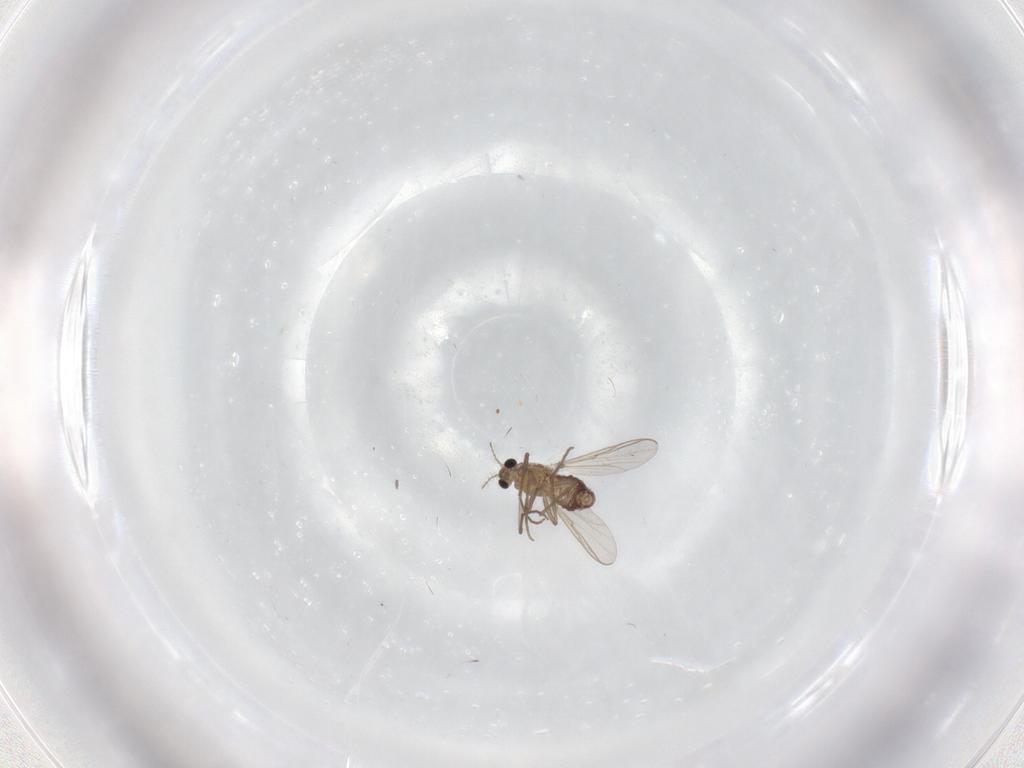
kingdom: Animalia
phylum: Arthropoda
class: Insecta
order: Diptera
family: Chironomidae
